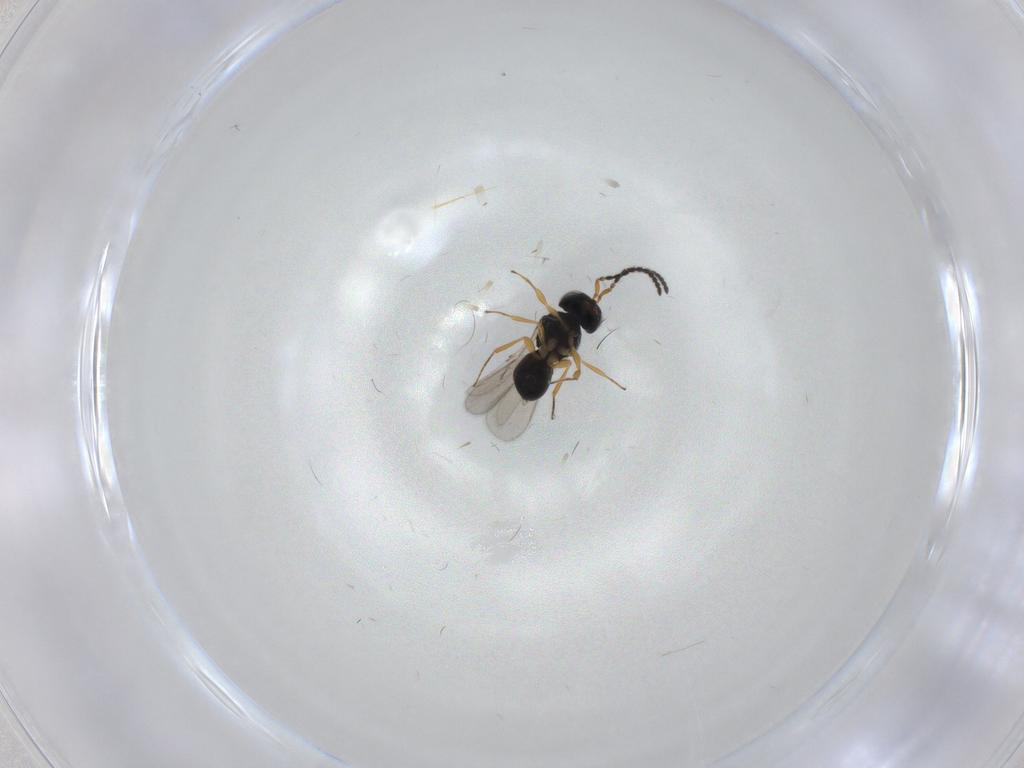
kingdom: Animalia
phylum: Arthropoda
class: Insecta
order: Hymenoptera
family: Scelionidae
